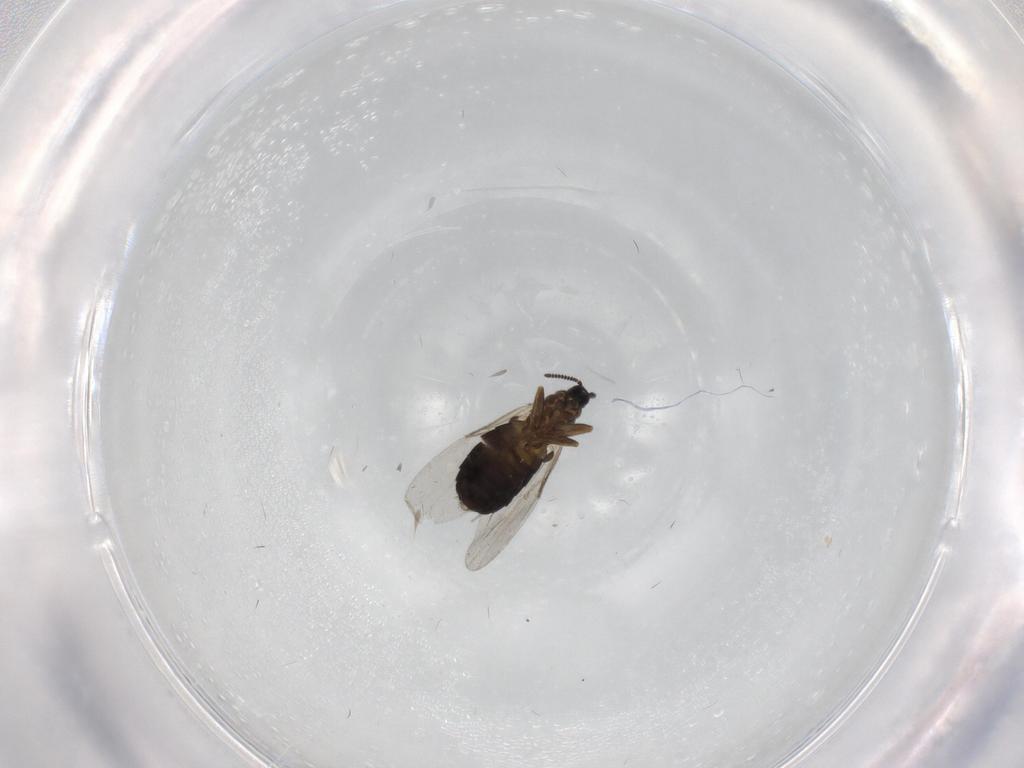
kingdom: Animalia
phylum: Arthropoda
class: Insecta
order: Diptera
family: Scatopsidae
